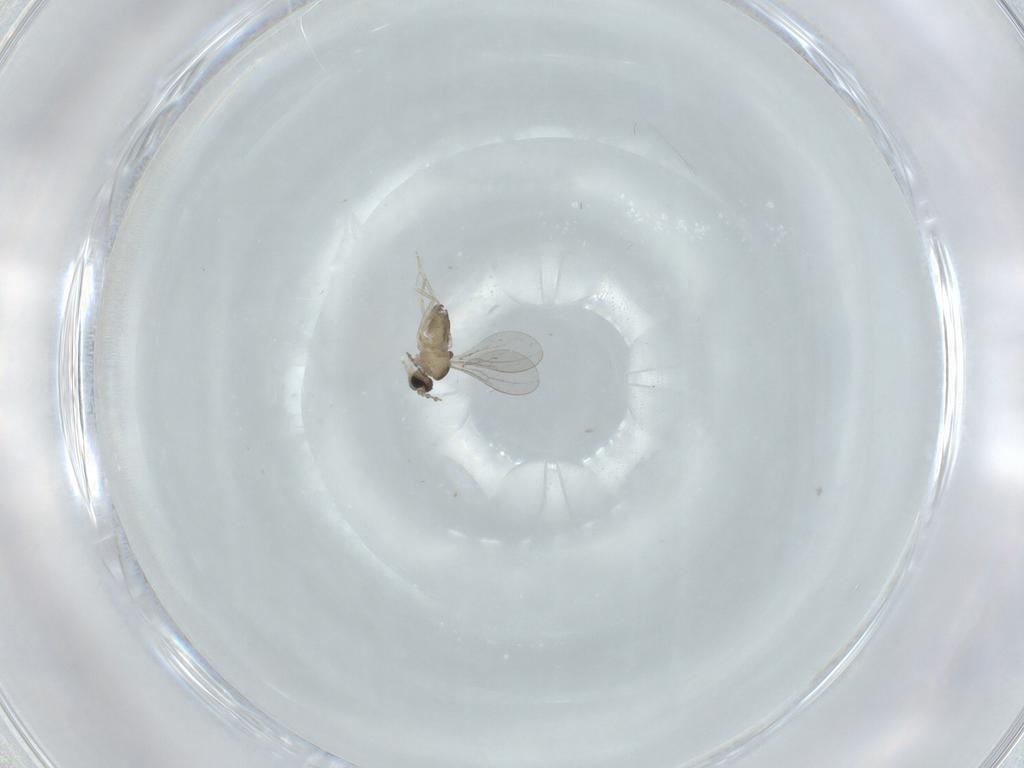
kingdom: Animalia
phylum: Arthropoda
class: Insecta
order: Diptera
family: Cecidomyiidae
